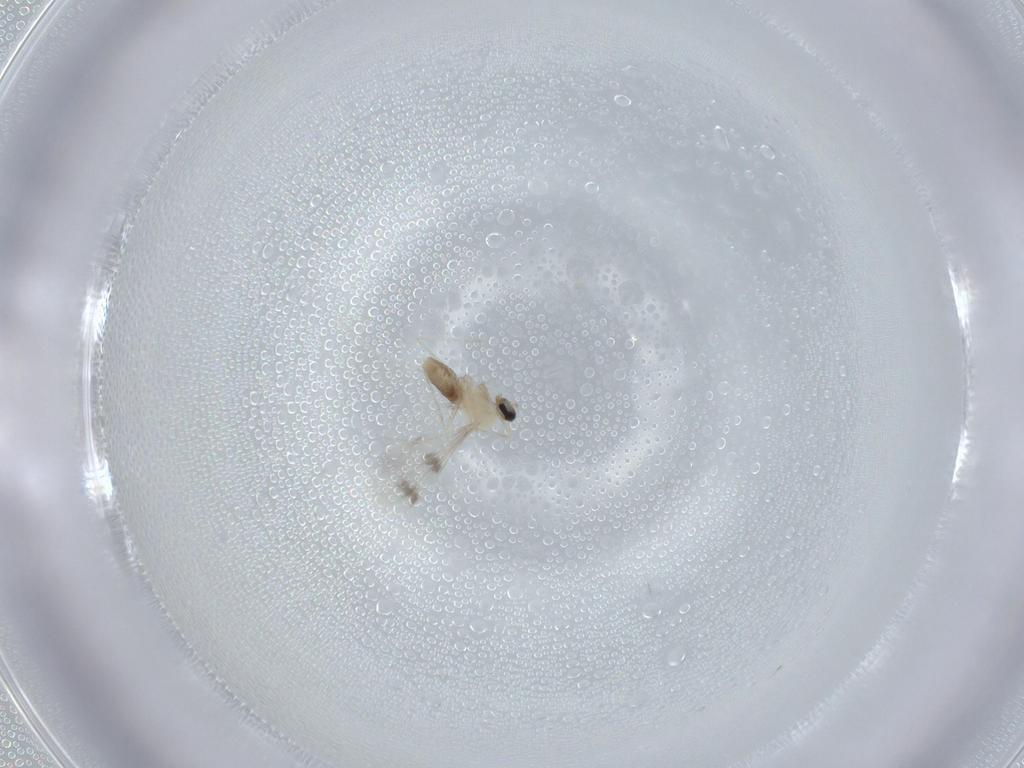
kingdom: Animalia
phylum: Arthropoda
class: Insecta
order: Diptera
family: Cecidomyiidae
